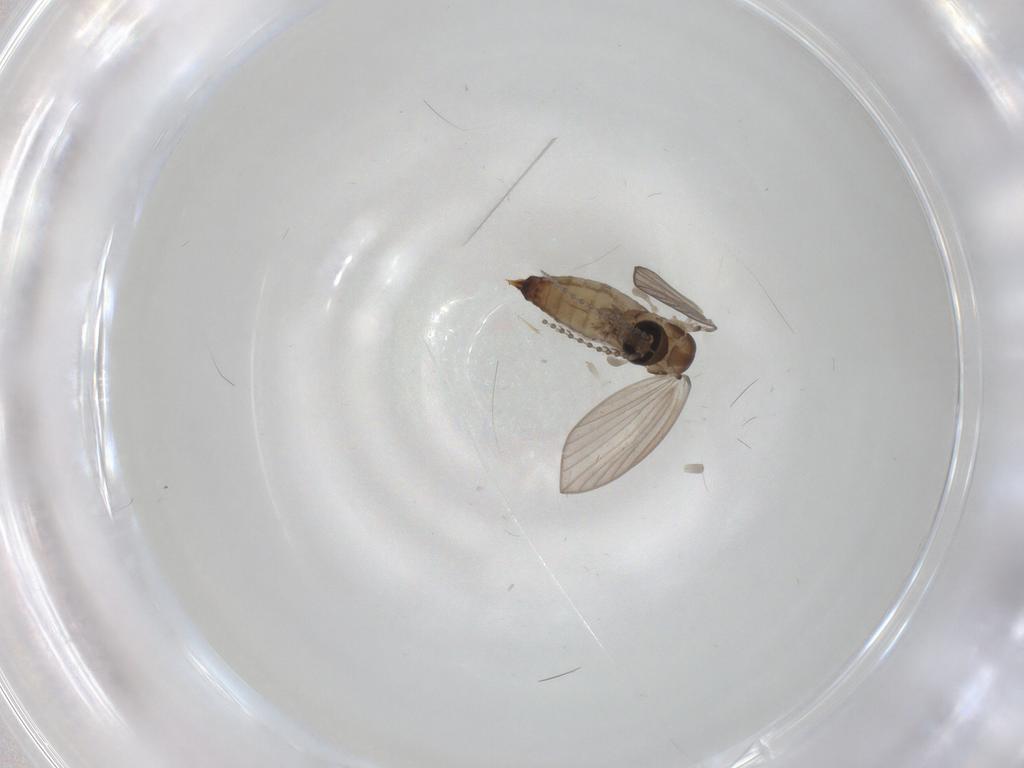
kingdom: Animalia
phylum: Arthropoda
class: Insecta
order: Diptera
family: Psychodidae
